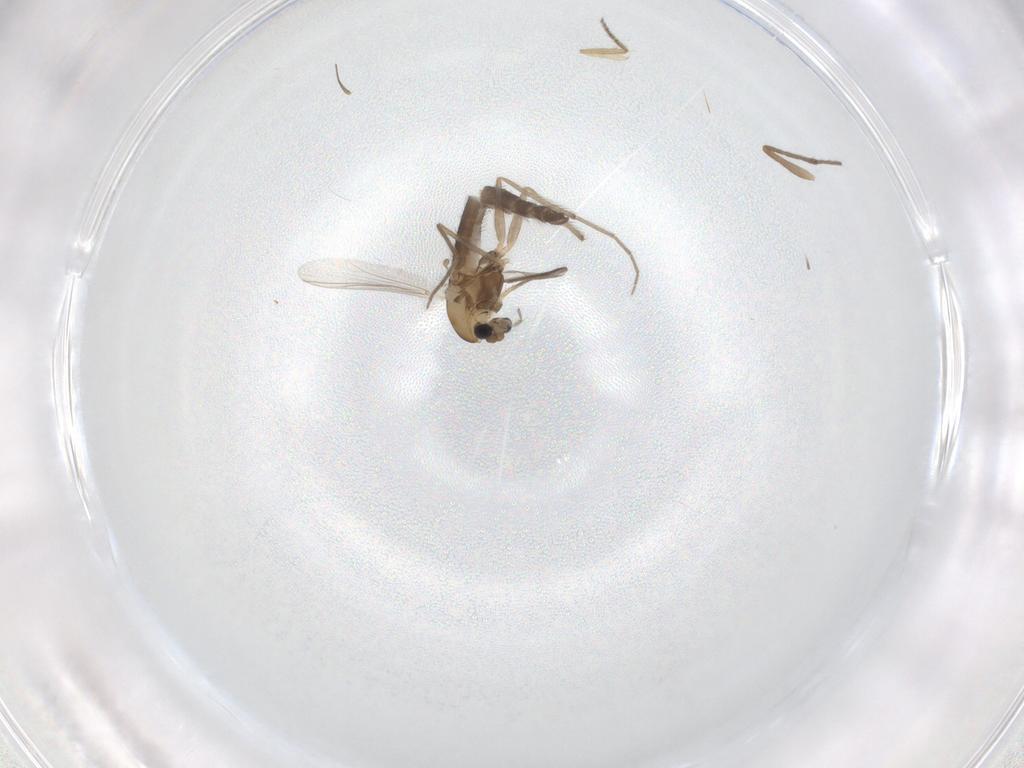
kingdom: Animalia
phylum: Arthropoda
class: Insecta
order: Diptera
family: Chironomidae
